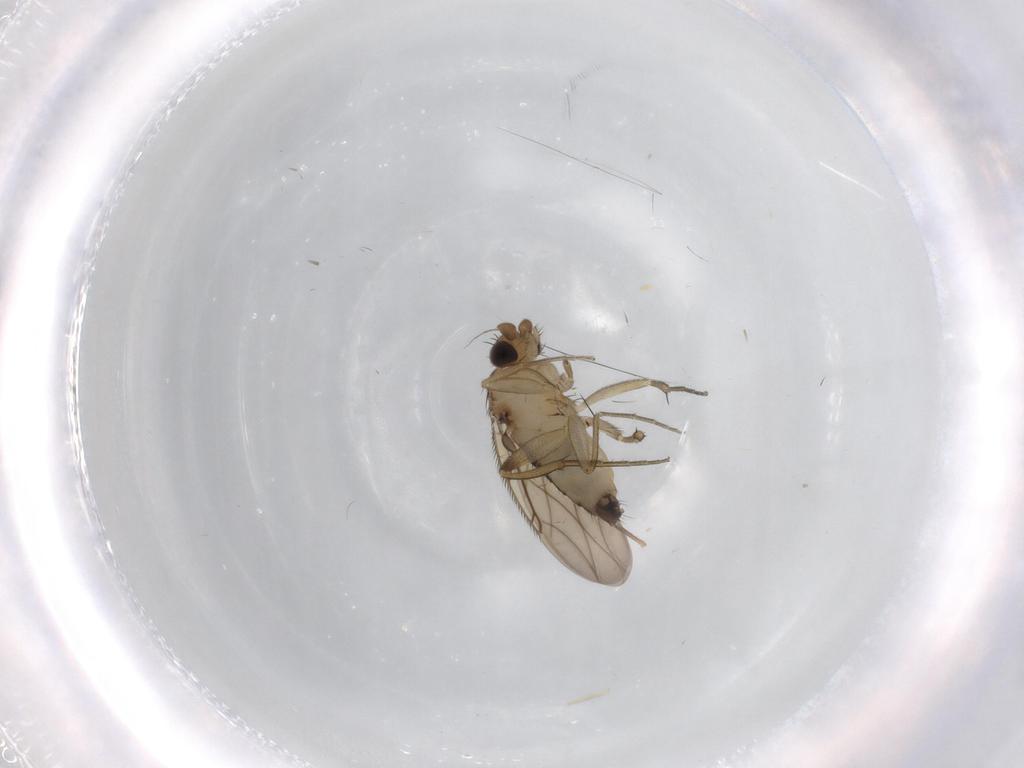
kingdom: Animalia
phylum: Arthropoda
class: Insecta
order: Diptera
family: Phoridae
